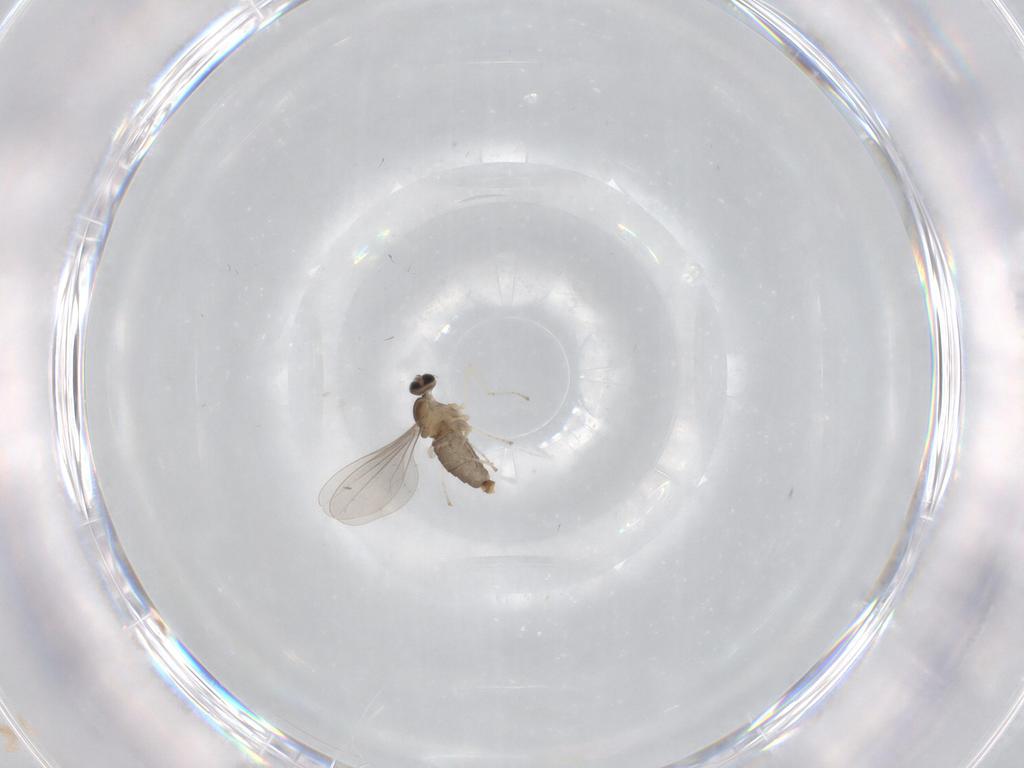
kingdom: Animalia
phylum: Arthropoda
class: Insecta
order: Diptera
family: Cecidomyiidae
